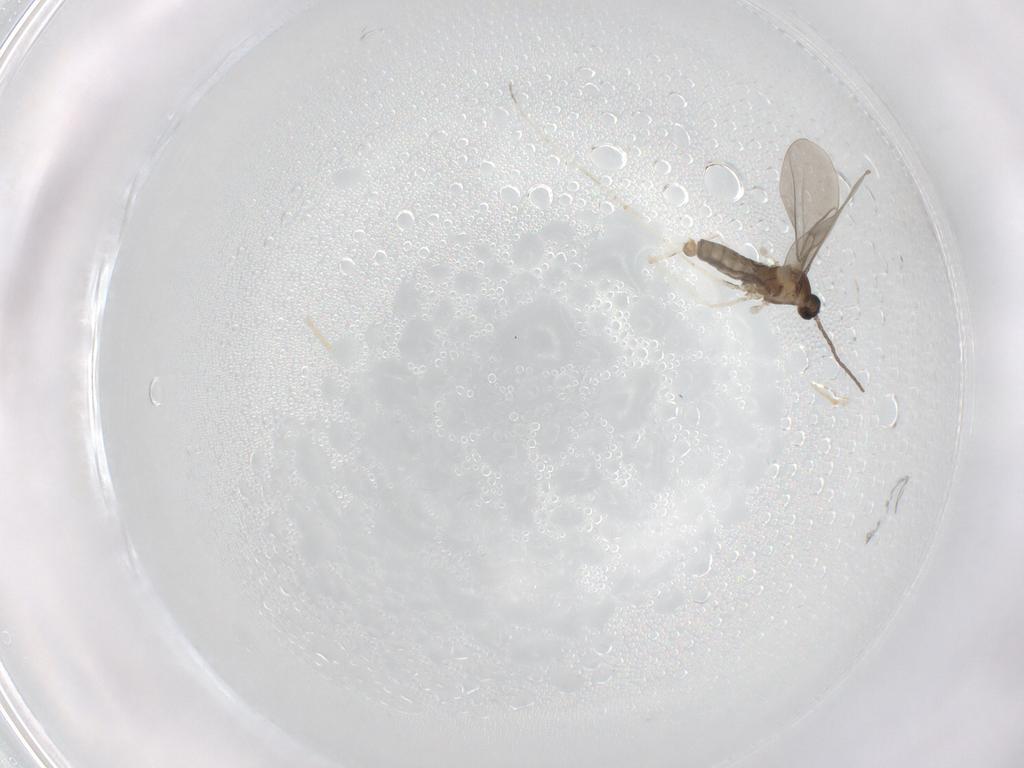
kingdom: Animalia
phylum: Arthropoda
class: Insecta
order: Diptera
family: Cecidomyiidae
